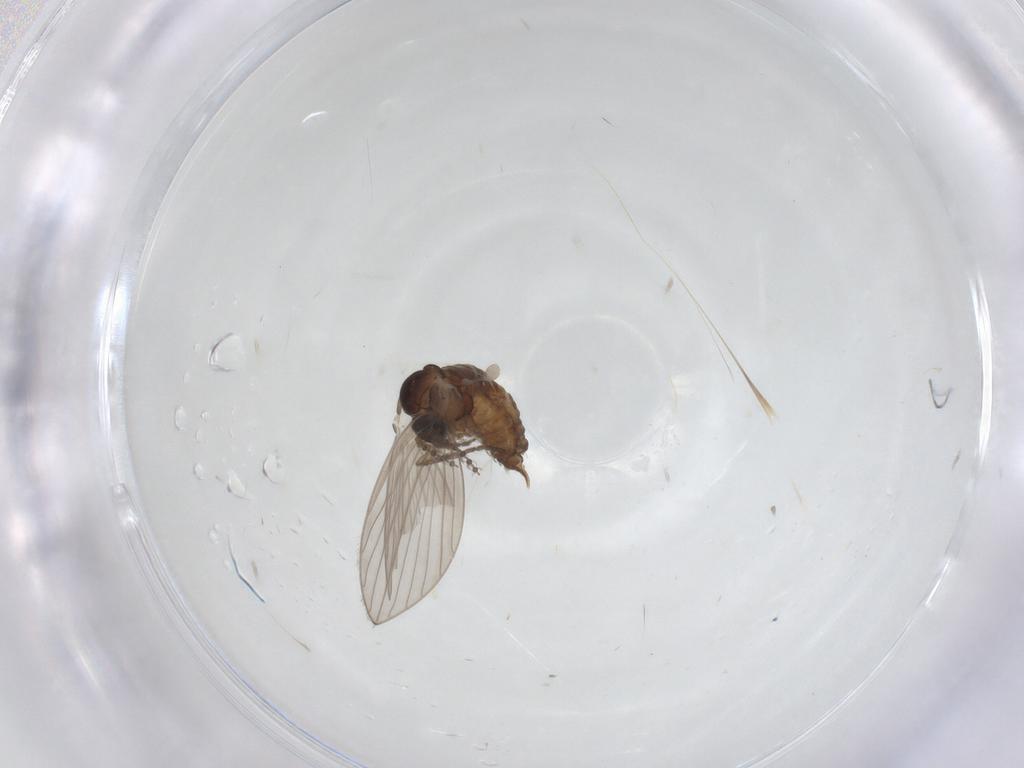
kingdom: Animalia
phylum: Arthropoda
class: Insecta
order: Diptera
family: Psychodidae
